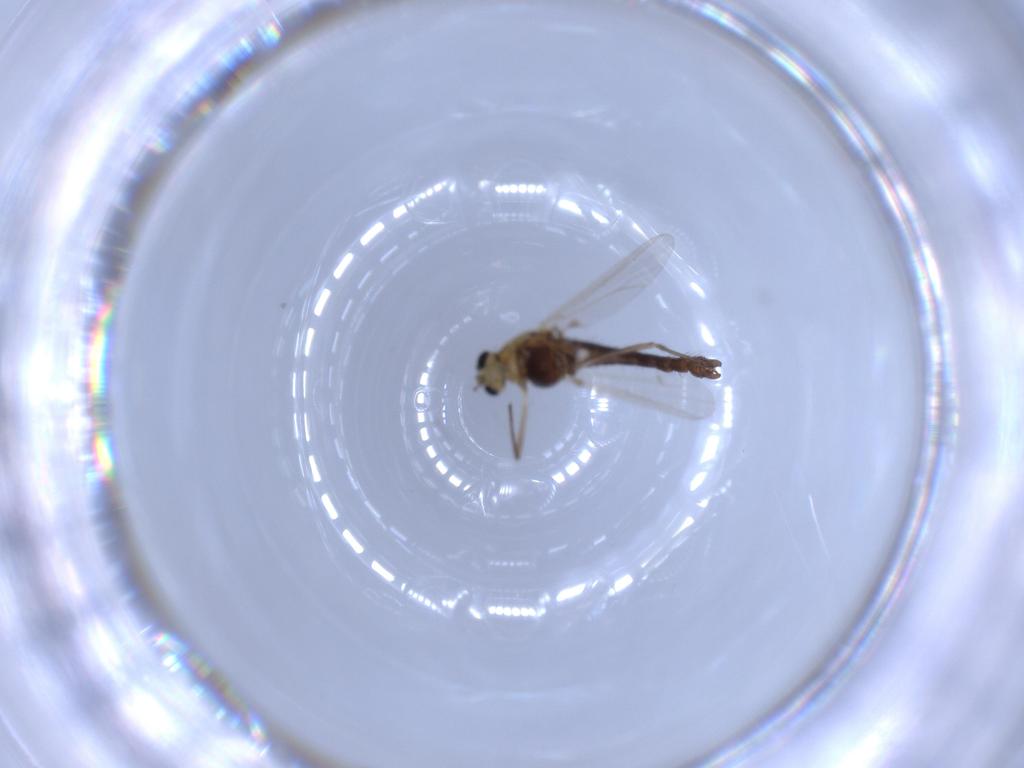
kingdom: Animalia
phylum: Arthropoda
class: Insecta
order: Diptera
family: Chironomidae
